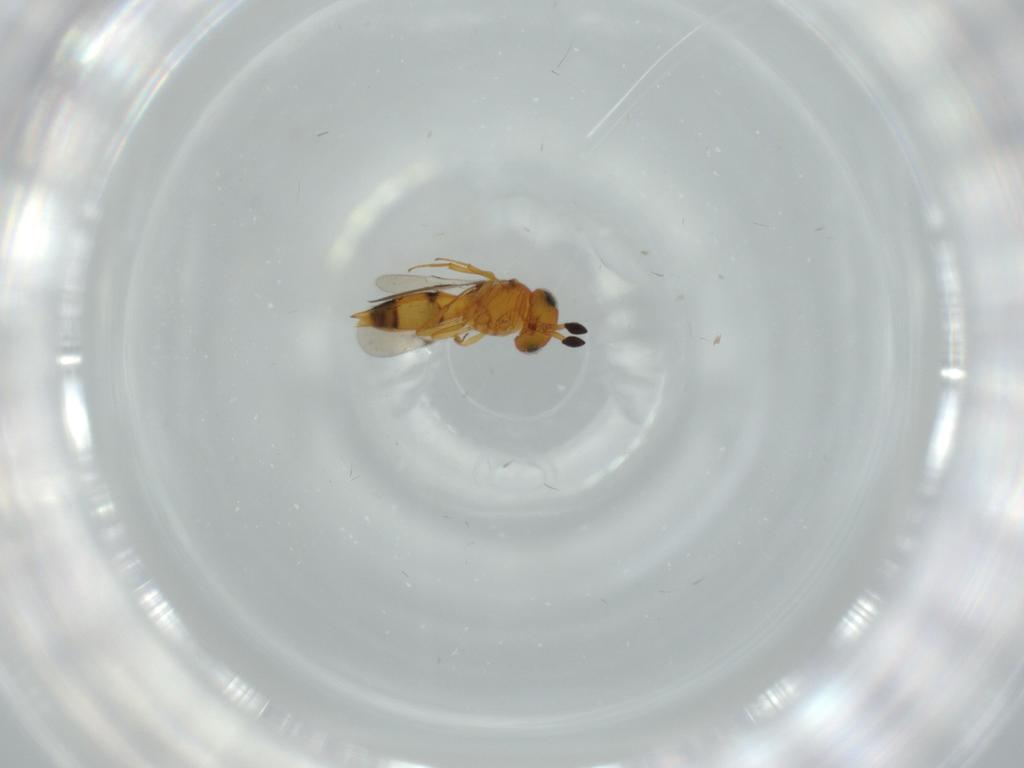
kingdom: Animalia
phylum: Arthropoda
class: Insecta
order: Hymenoptera
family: Scelionidae
